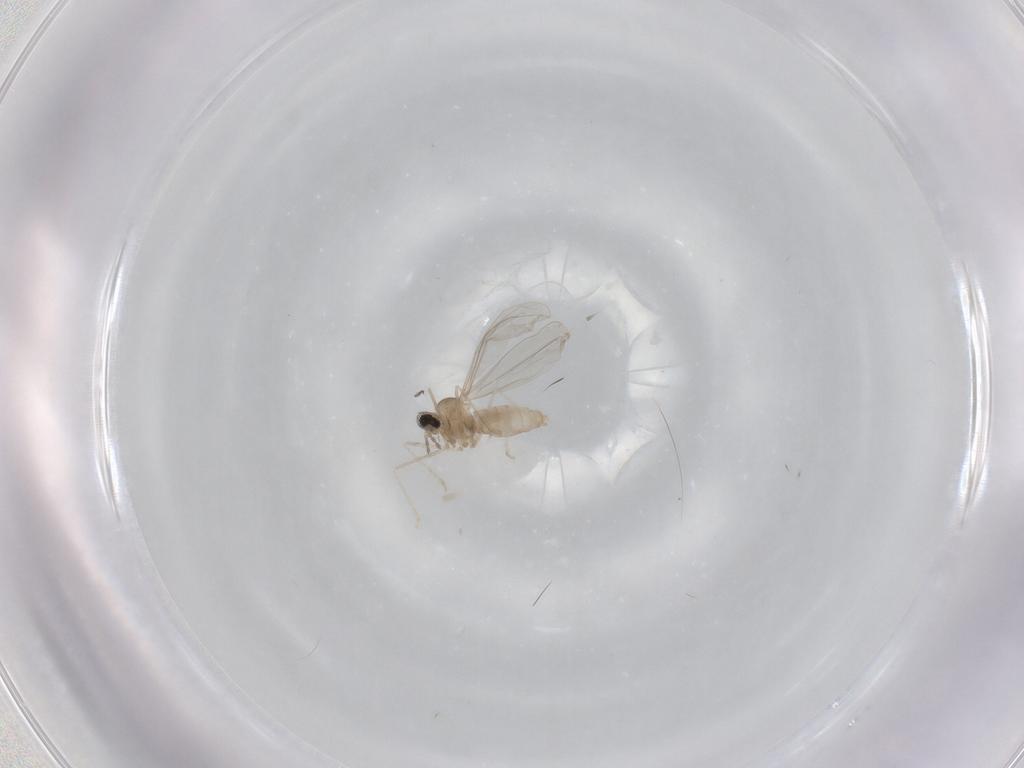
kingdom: Animalia
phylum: Arthropoda
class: Insecta
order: Diptera
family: Cecidomyiidae
